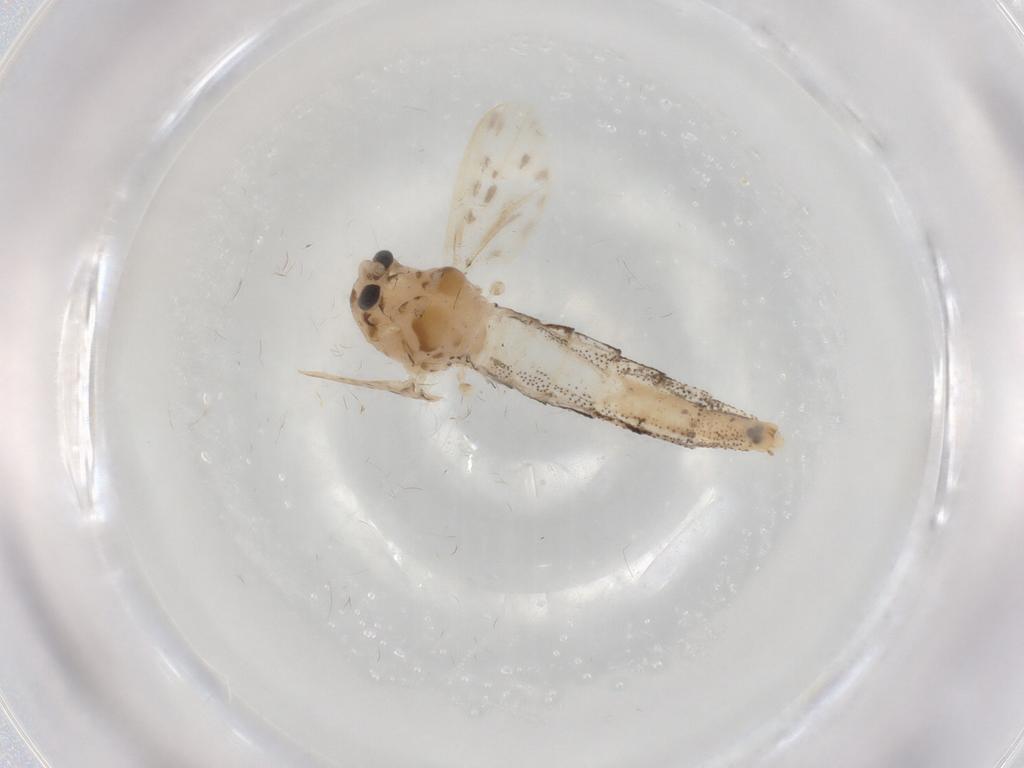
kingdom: Animalia
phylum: Arthropoda
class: Insecta
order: Diptera
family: Chaoboridae
